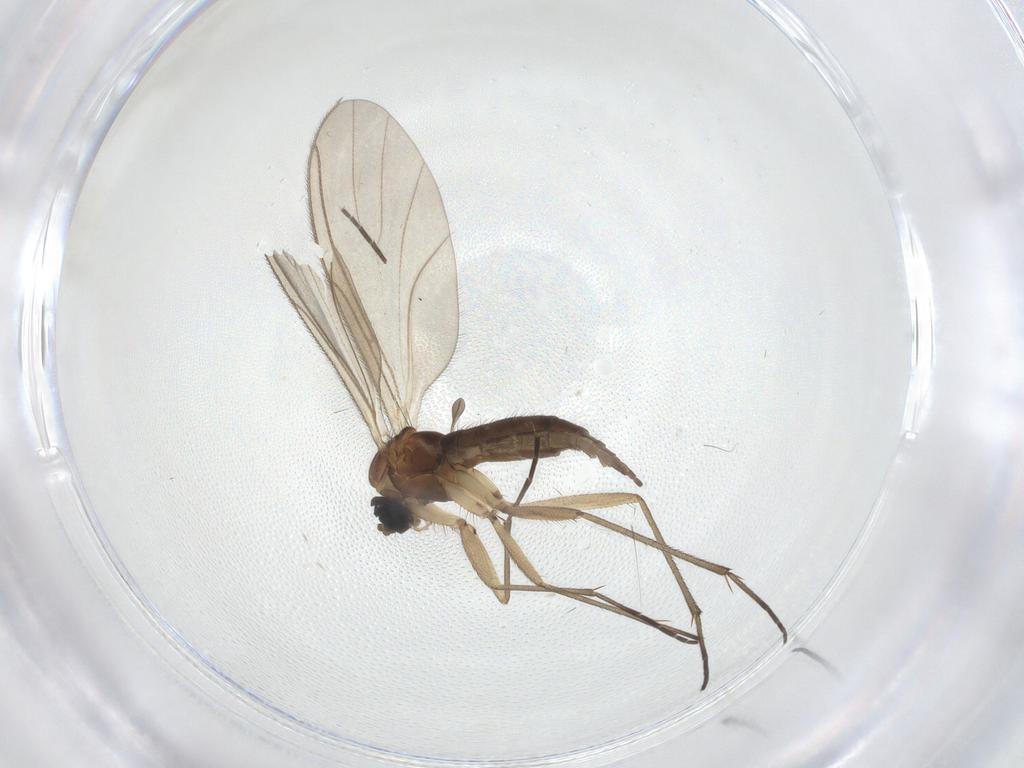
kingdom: Animalia
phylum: Arthropoda
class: Insecta
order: Diptera
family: Sciaridae
